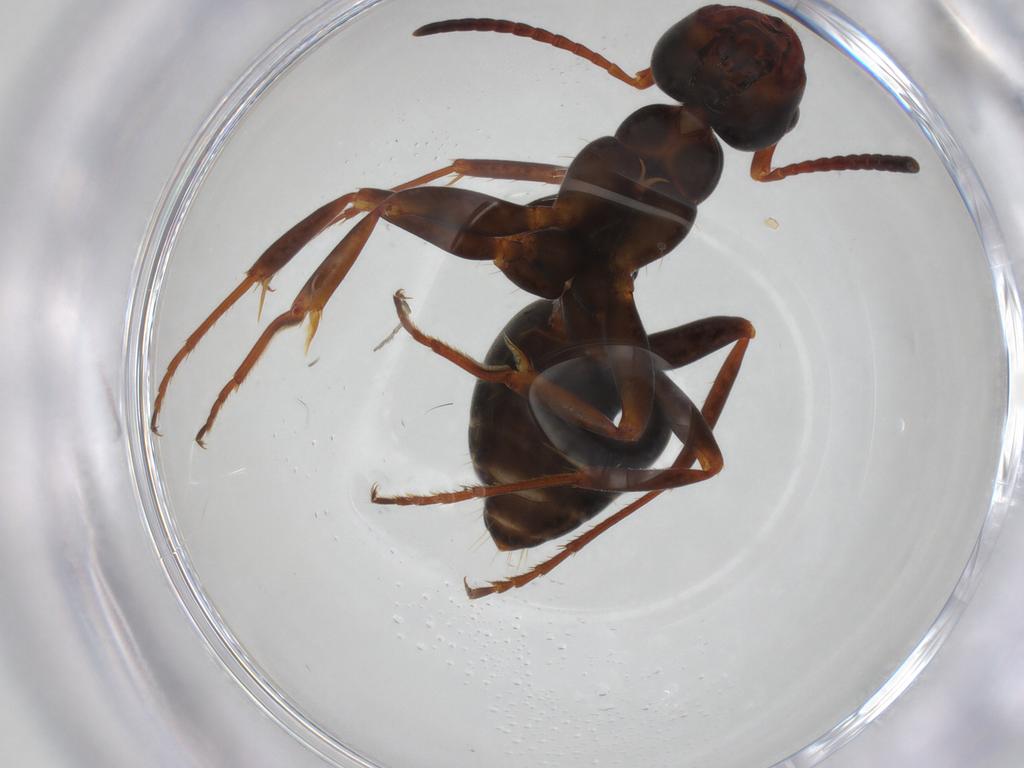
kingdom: Animalia
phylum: Arthropoda
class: Insecta
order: Hymenoptera
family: Formicidae
